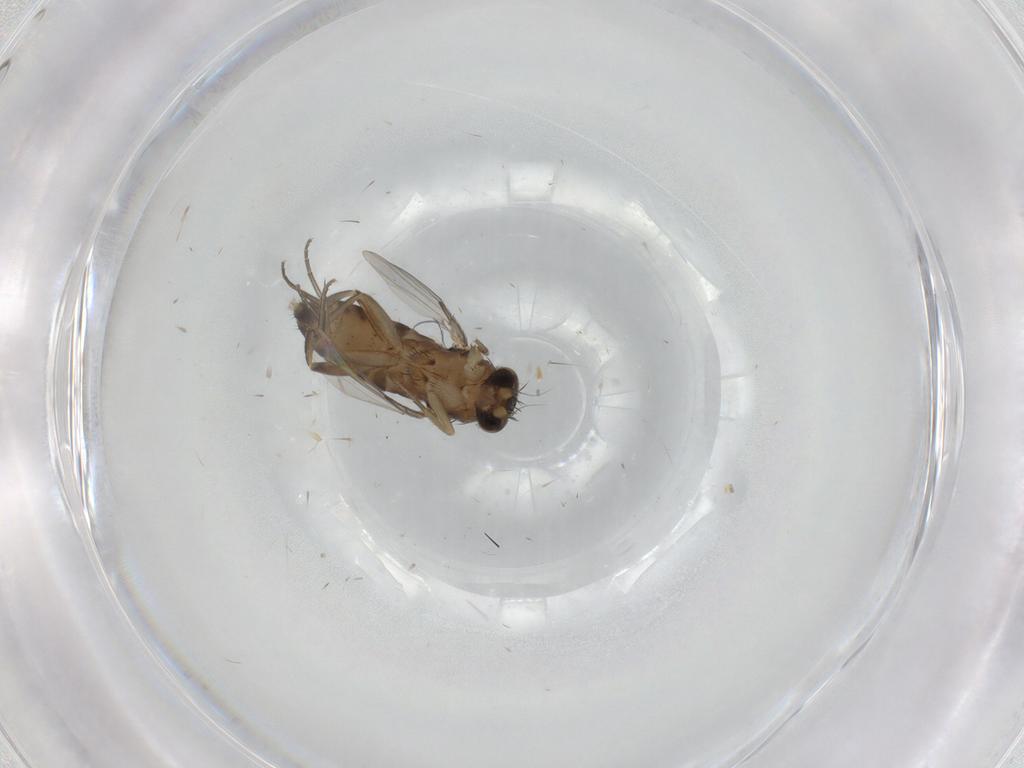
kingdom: Animalia
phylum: Arthropoda
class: Insecta
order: Diptera
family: Phoridae
